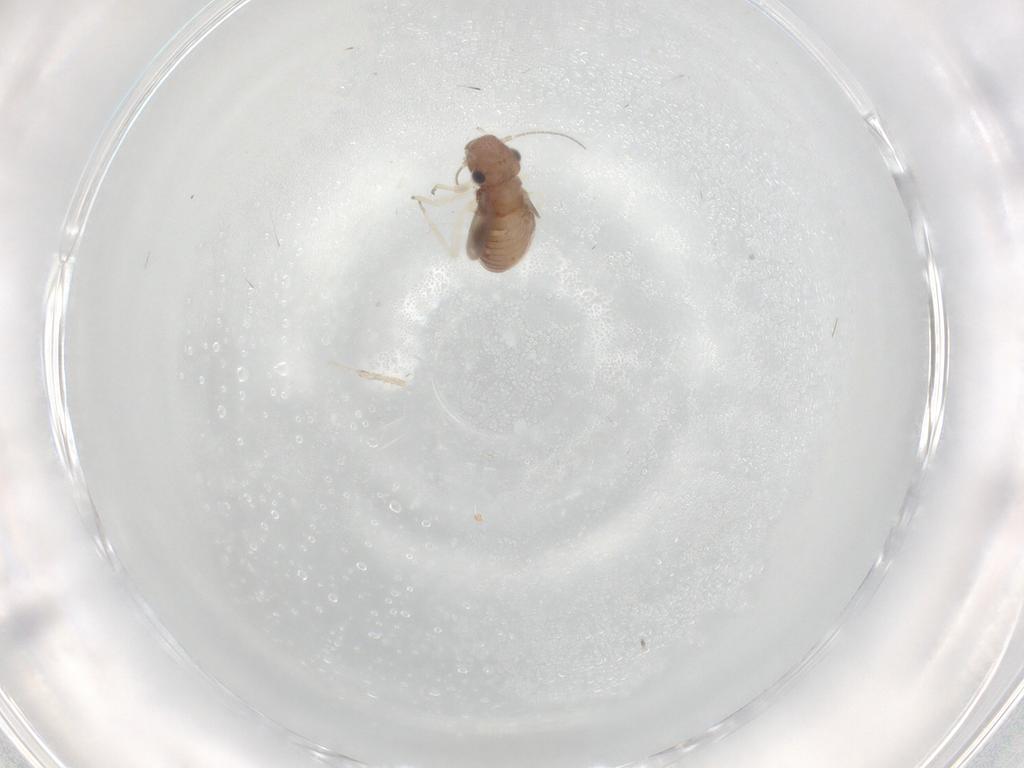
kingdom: Animalia
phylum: Arthropoda
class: Insecta
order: Psocodea
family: Caeciliusidae
